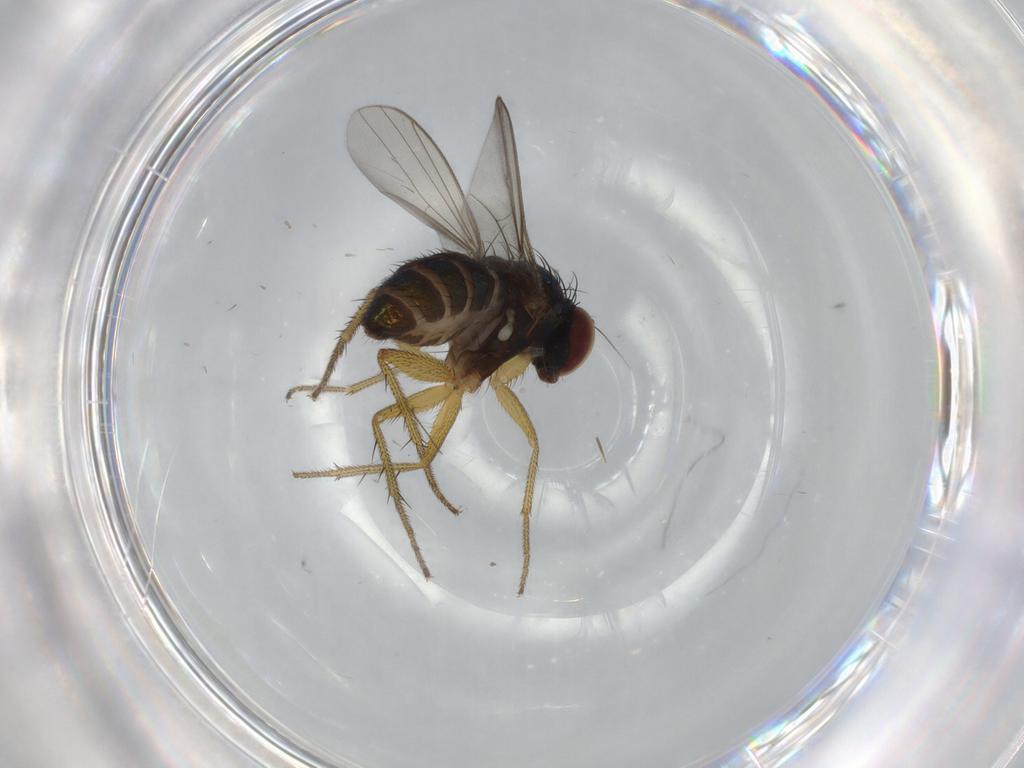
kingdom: Animalia
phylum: Arthropoda
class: Insecta
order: Diptera
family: Dolichopodidae
